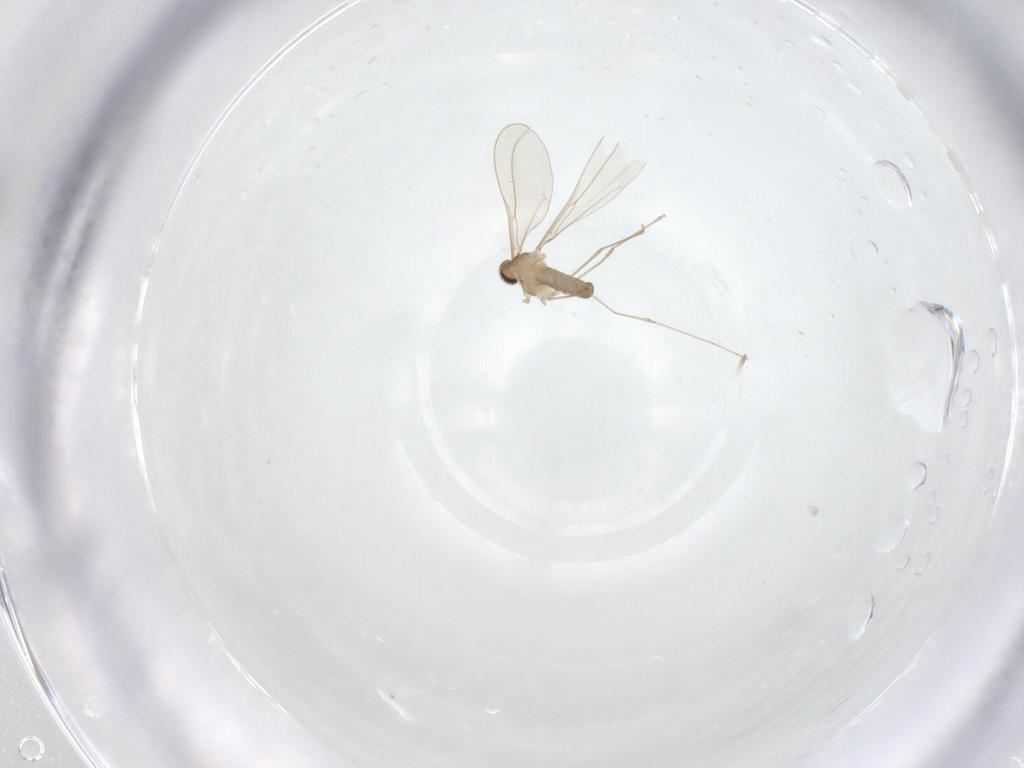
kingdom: Animalia
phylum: Arthropoda
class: Insecta
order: Diptera
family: Cecidomyiidae
